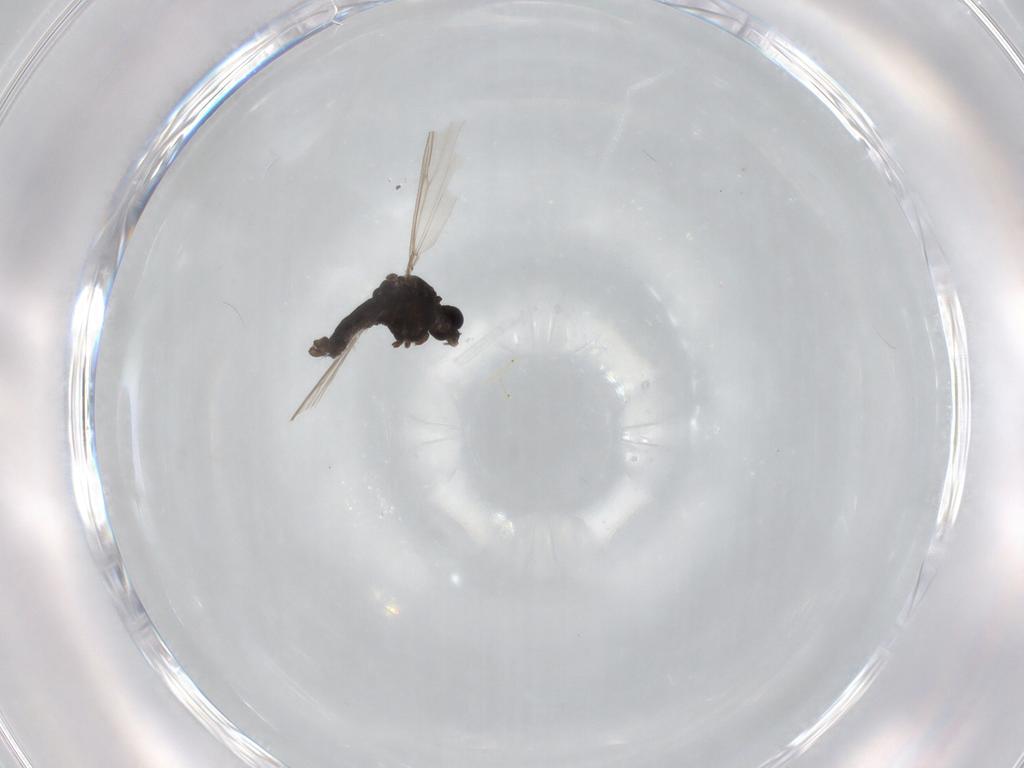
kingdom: Animalia
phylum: Arthropoda
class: Insecta
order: Diptera
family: Chironomidae
